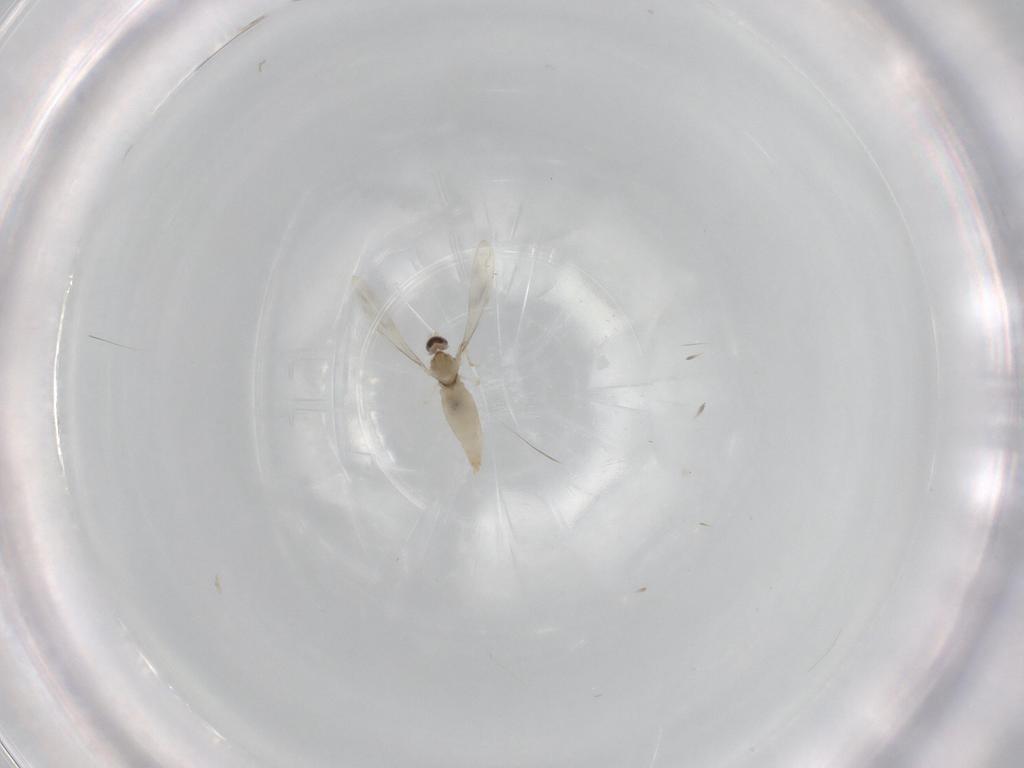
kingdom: Animalia
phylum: Arthropoda
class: Insecta
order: Diptera
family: Cecidomyiidae
